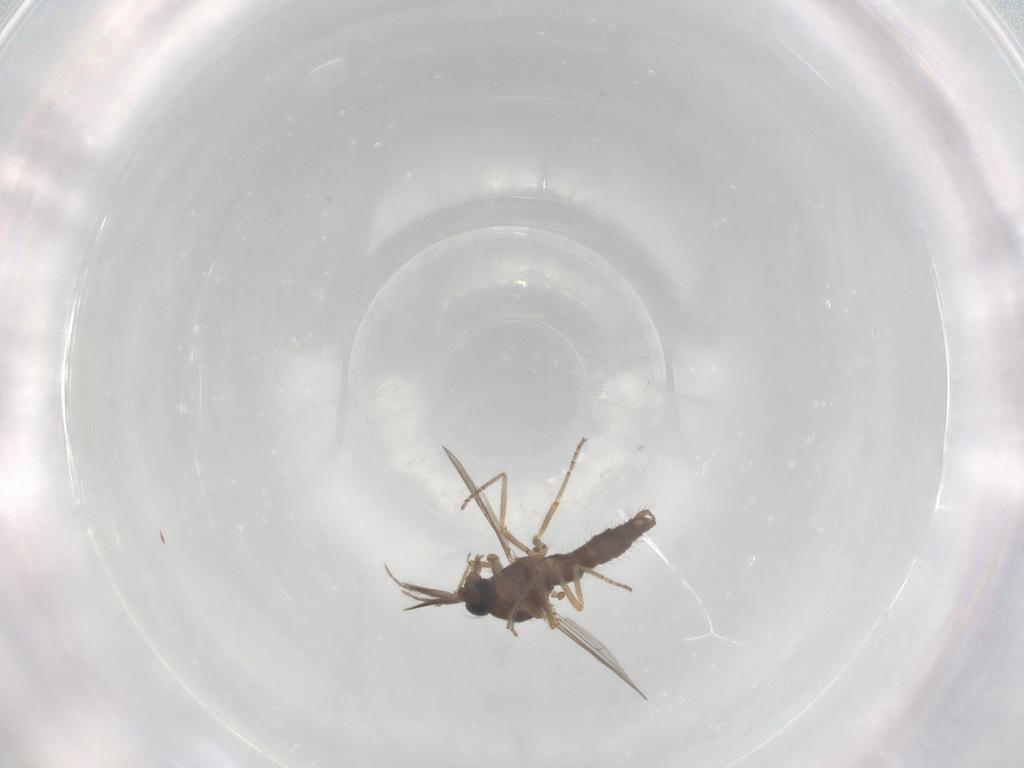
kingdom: Animalia
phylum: Arthropoda
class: Insecta
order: Diptera
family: Ceratopogonidae
